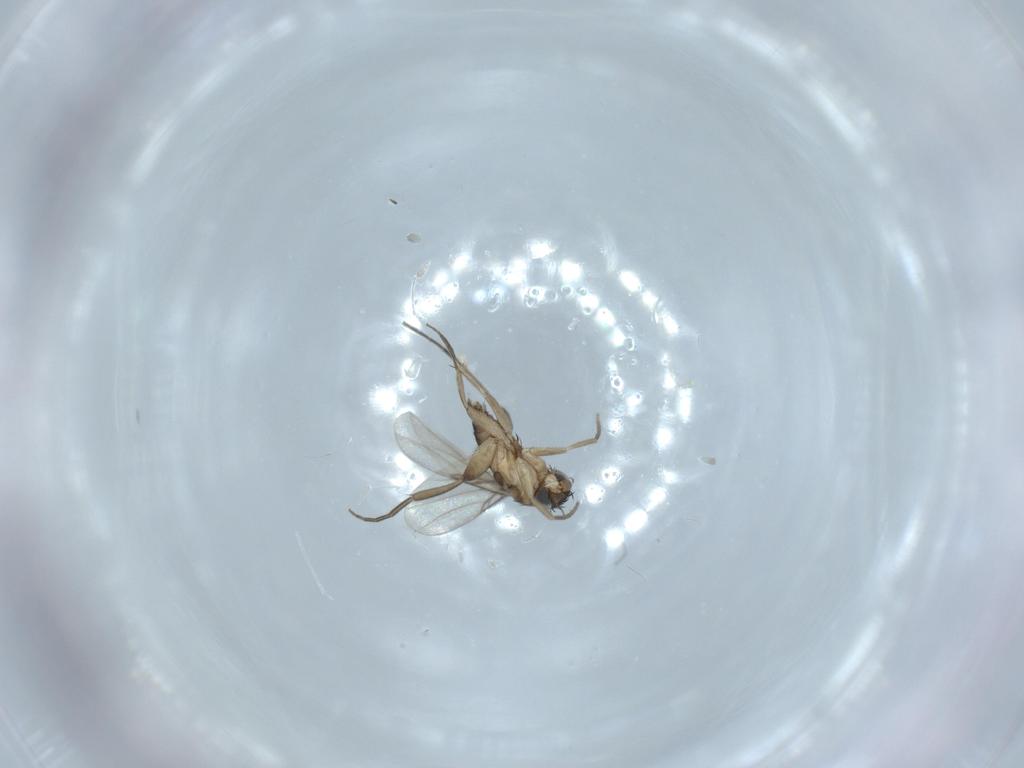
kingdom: Animalia
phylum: Arthropoda
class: Insecta
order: Diptera
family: Phoridae
